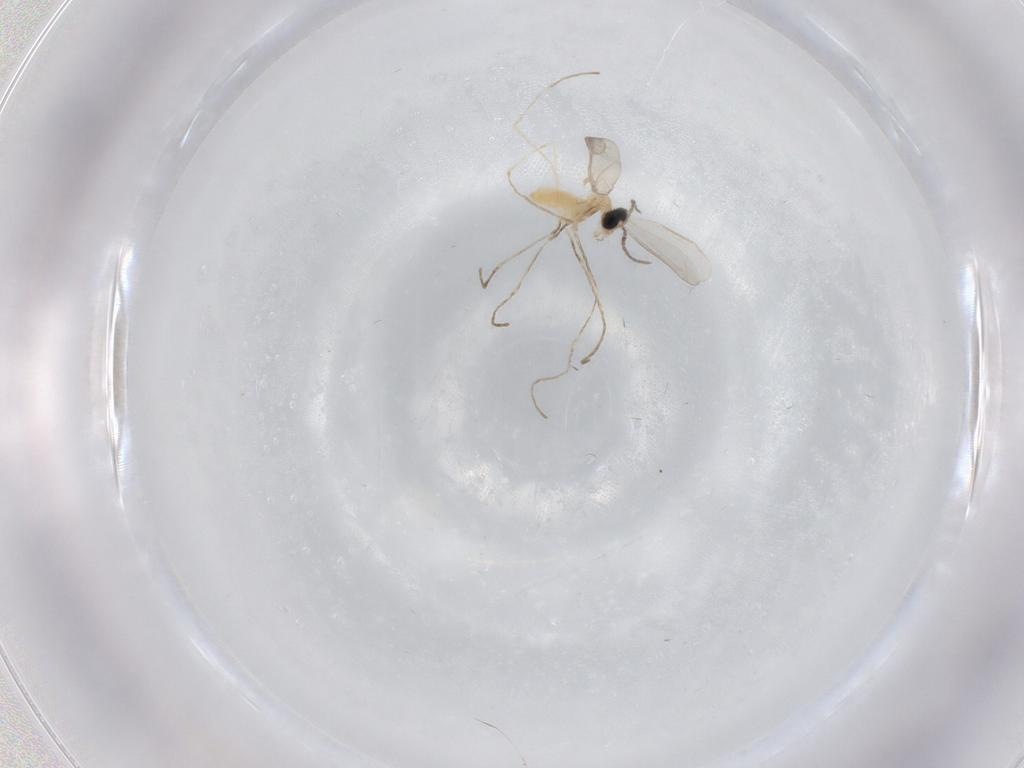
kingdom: Animalia
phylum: Arthropoda
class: Insecta
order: Diptera
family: Cecidomyiidae
